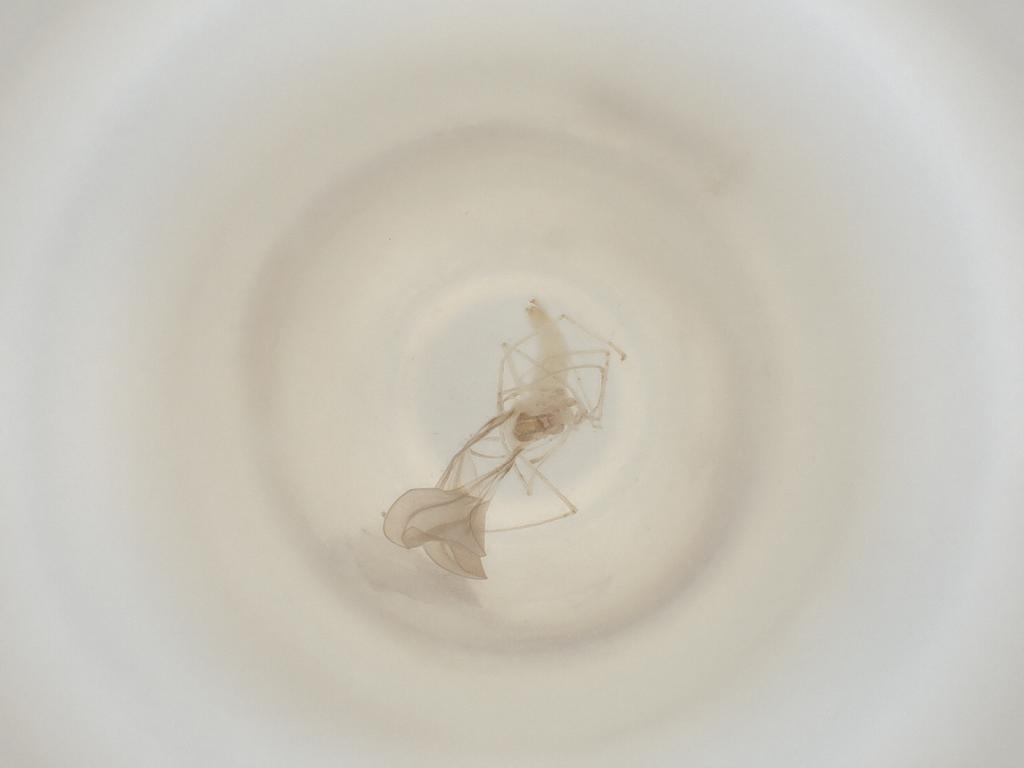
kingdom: Animalia
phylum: Arthropoda
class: Insecta
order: Diptera
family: Cecidomyiidae
